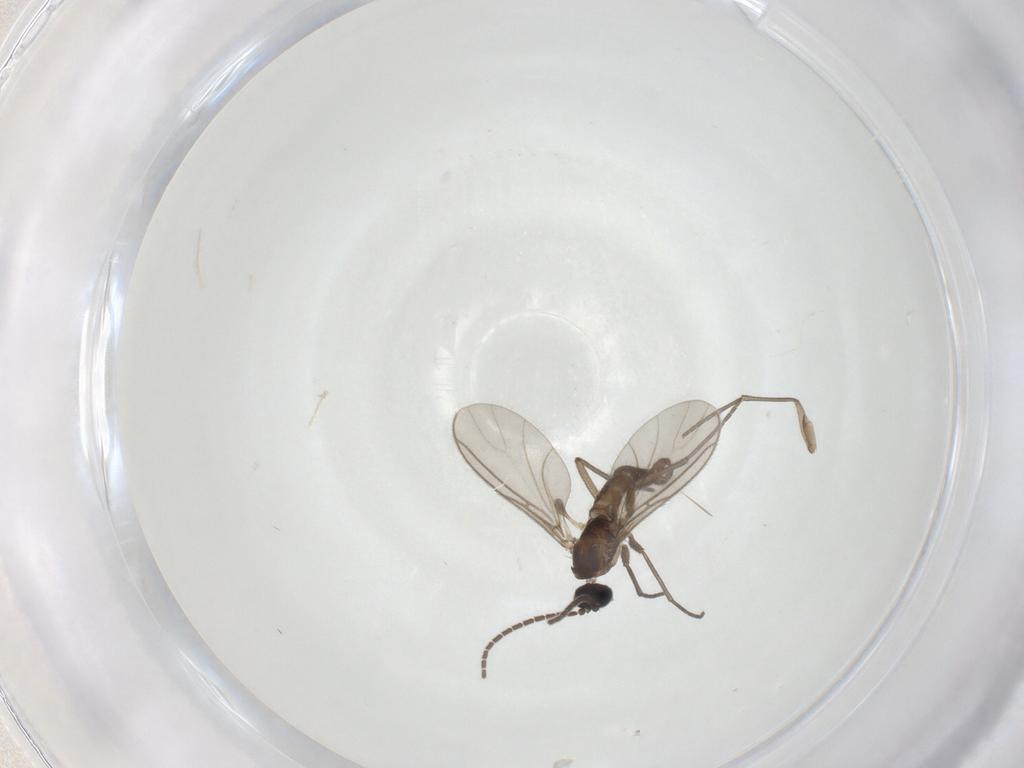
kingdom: Animalia
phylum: Arthropoda
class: Insecta
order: Diptera
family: Sciaridae
